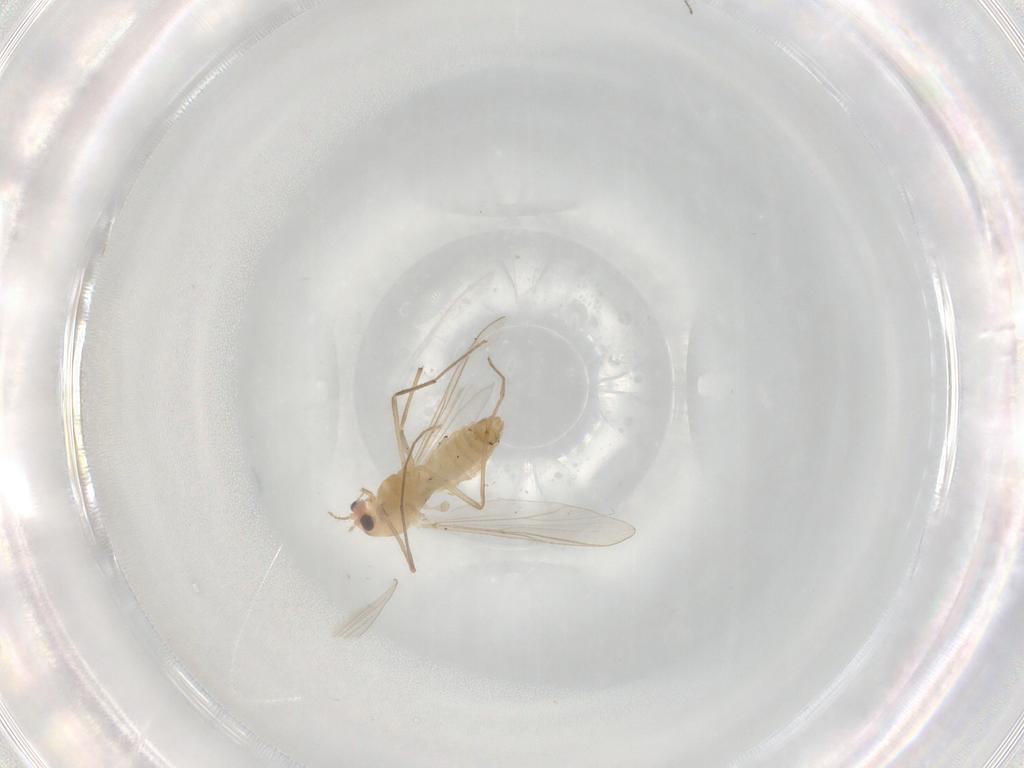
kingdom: Animalia
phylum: Arthropoda
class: Insecta
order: Diptera
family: Chironomidae
